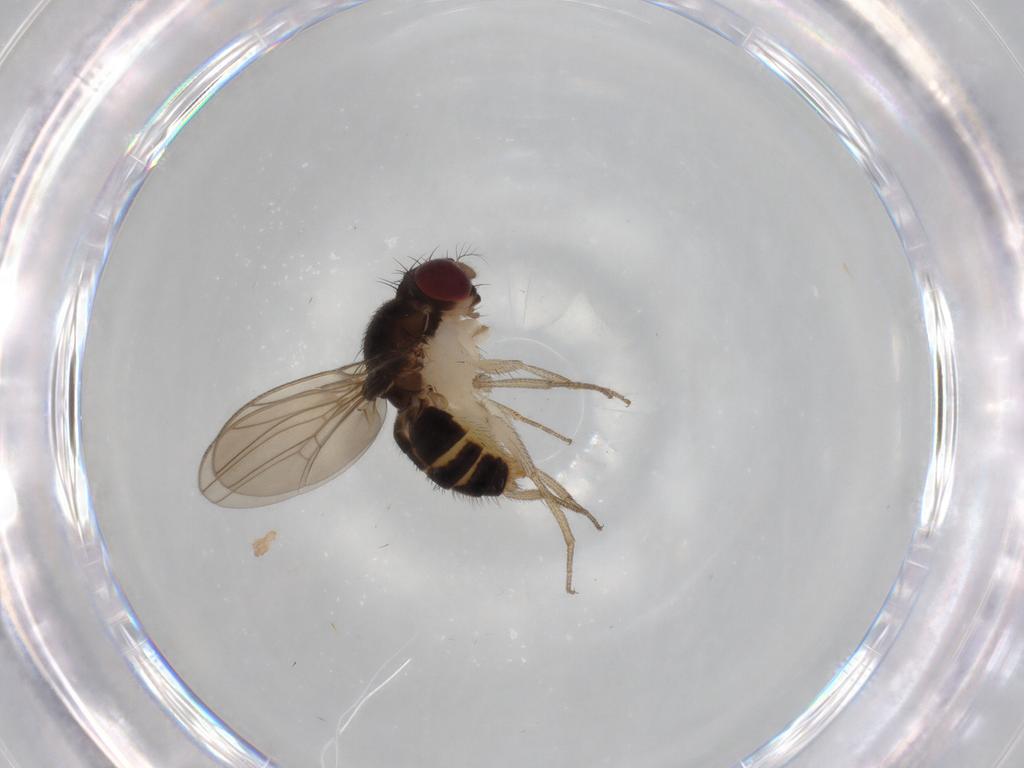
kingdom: Animalia
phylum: Arthropoda
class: Insecta
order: Diptera
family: Drosophilidae
